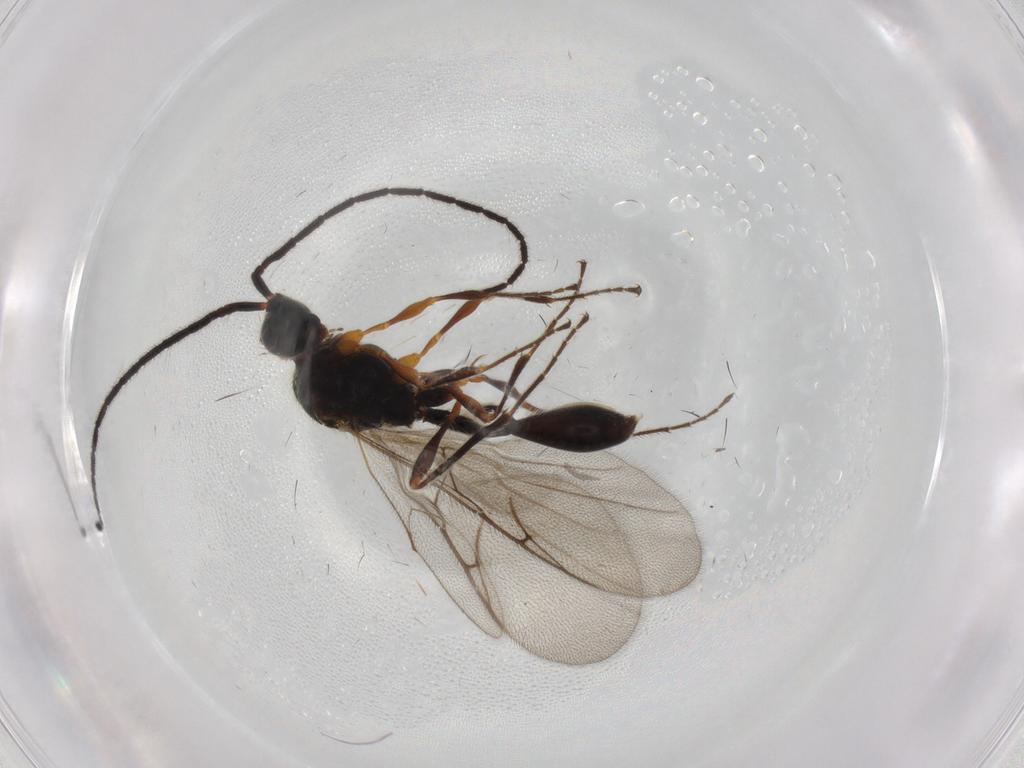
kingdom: Animalia
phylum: Arthropoda
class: Insecta
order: Hymenoptera
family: Diapriidae
